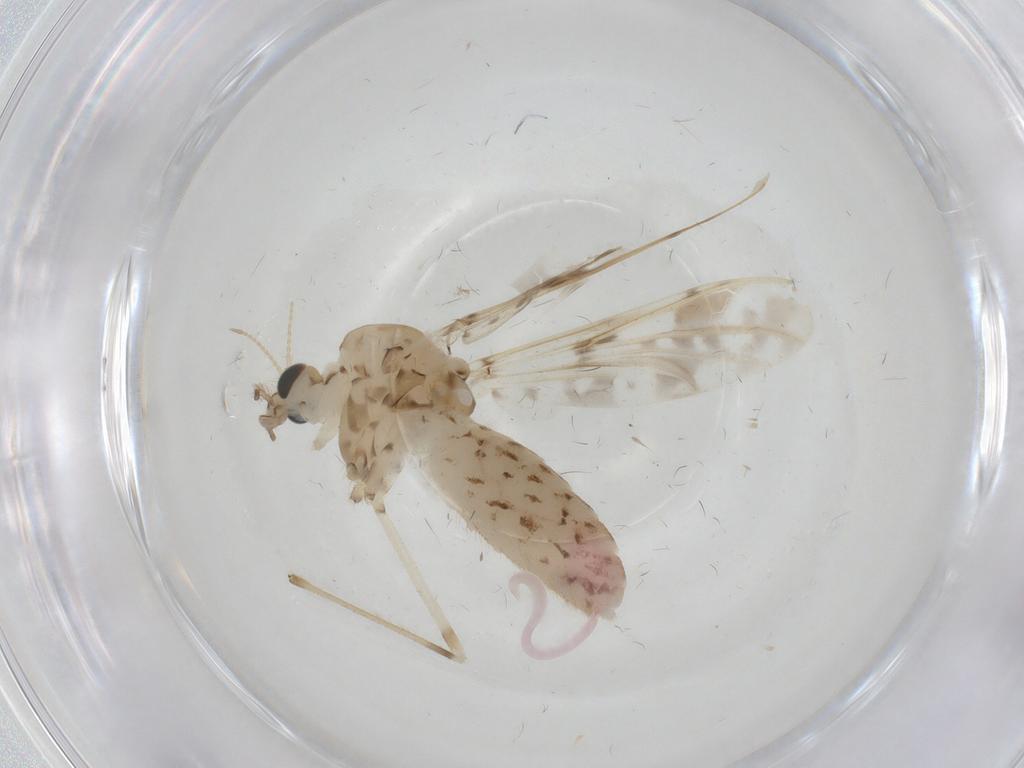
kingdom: Animalia
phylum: Arthropoda
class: Insecta
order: Diptera
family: Chironomidae
